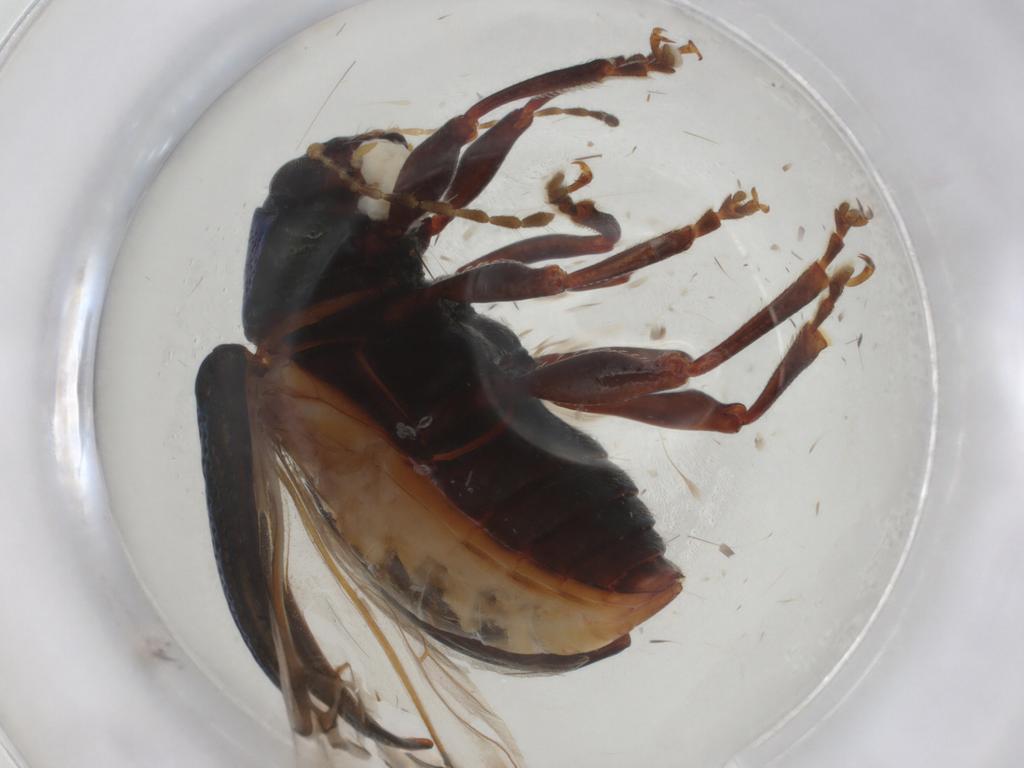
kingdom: Animalia
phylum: Arthropoda
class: Insecta
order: Coleoptera
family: Chrysomelidae
